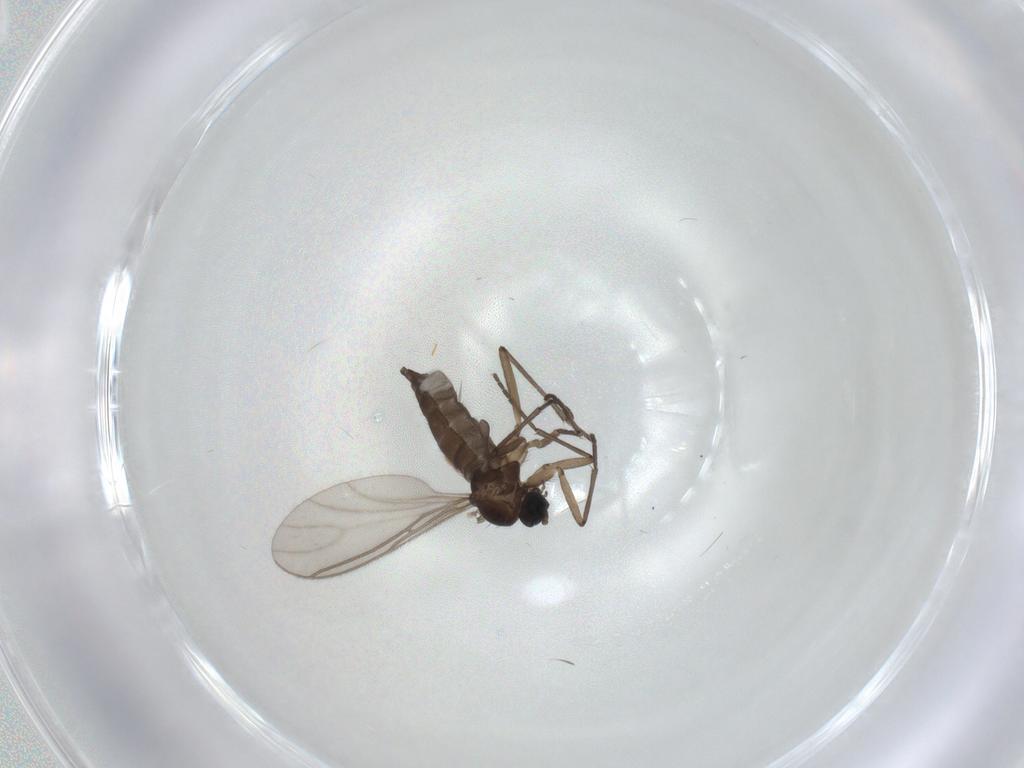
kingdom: Animalia
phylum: Arthropoda
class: Insecta
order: Diptera
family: Sciaridae
